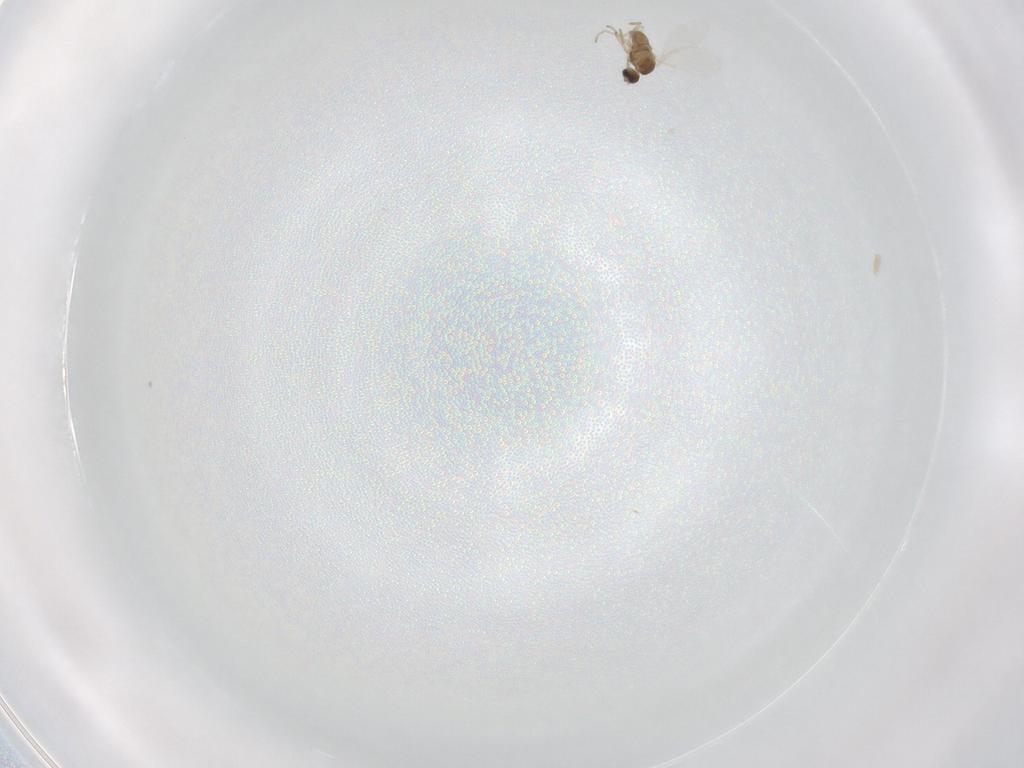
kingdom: Animalia
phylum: Arthropoda
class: Insecta
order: Diptera
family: Cecidomyiidae
